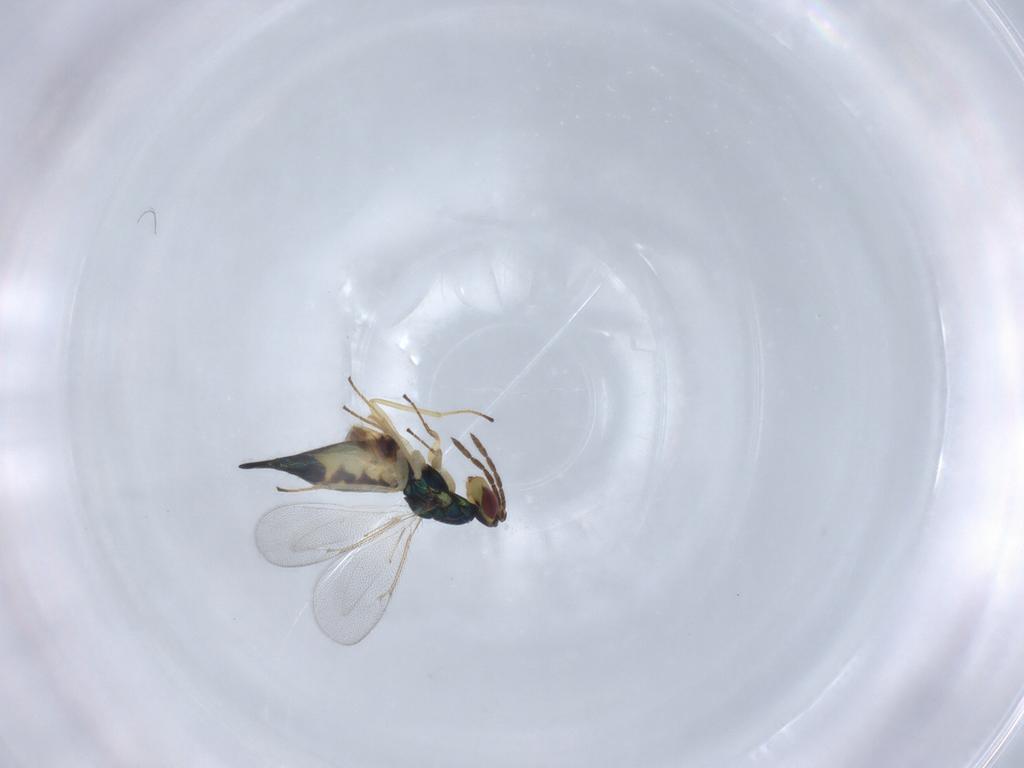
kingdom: Animalia
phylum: Arthropoda
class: Insecta
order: Hymenoptera
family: Eulophidae
